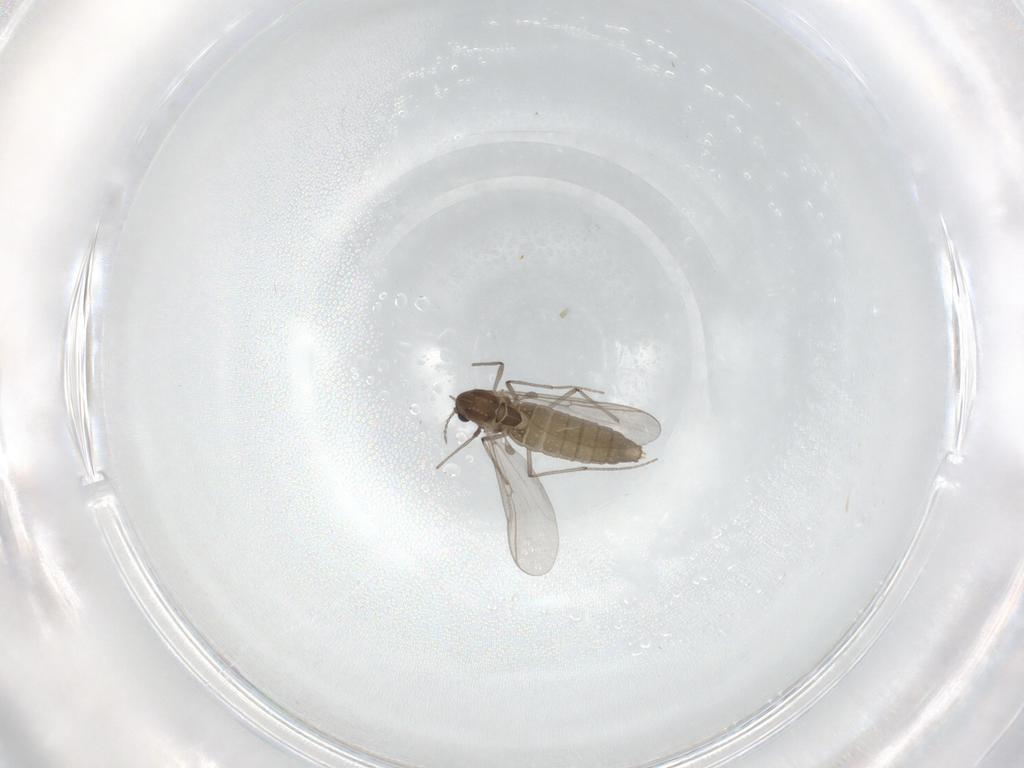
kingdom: Animalia
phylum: Arthropoda
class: Insecta
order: Diptera
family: Chironomidae
